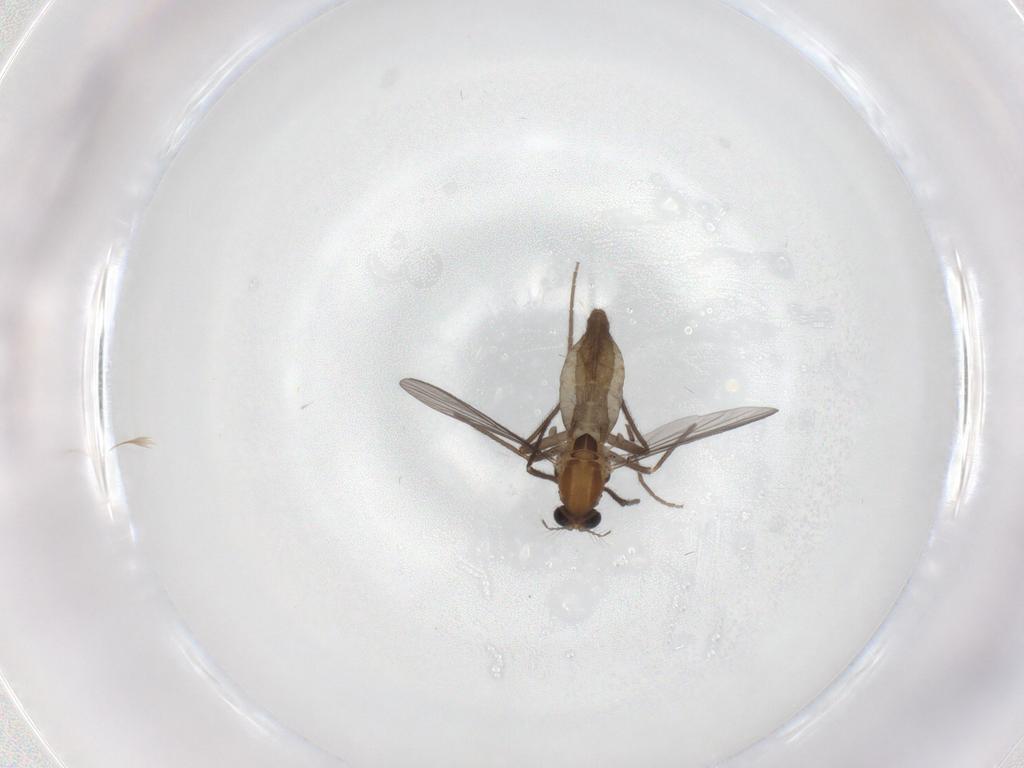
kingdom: Animalia
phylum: Arthropoda
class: Insecta
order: Diptera
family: Chironomidae
